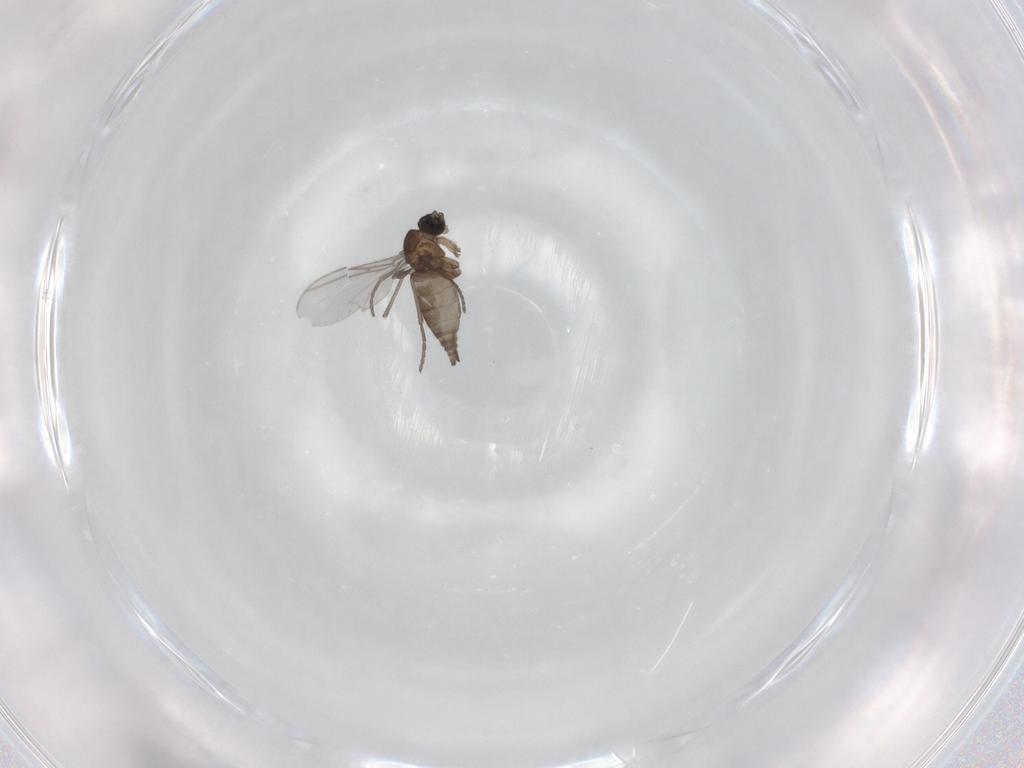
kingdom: Animalia
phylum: Arthropoda
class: Insecta
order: Diptera
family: Sciaridae
